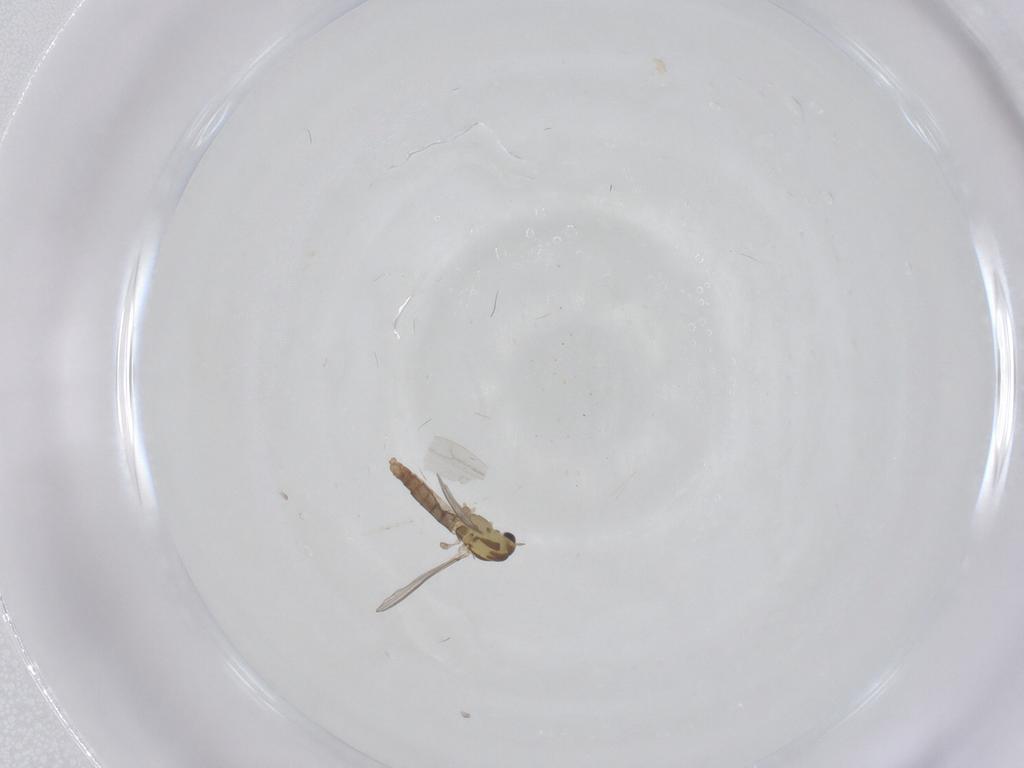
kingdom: Animalia
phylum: Arthropoda
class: Insecta
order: Diptera
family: Chironomidae
